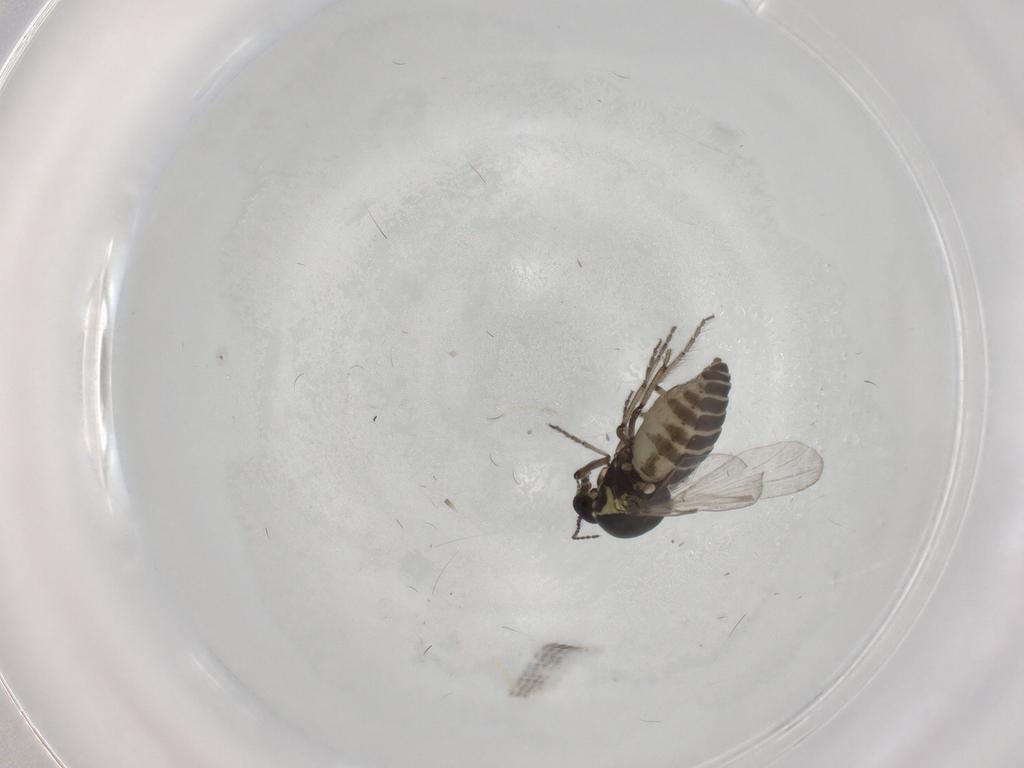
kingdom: Animalia
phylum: Arthropoda
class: Insecta
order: Diptera
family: Ceratopogonidae
